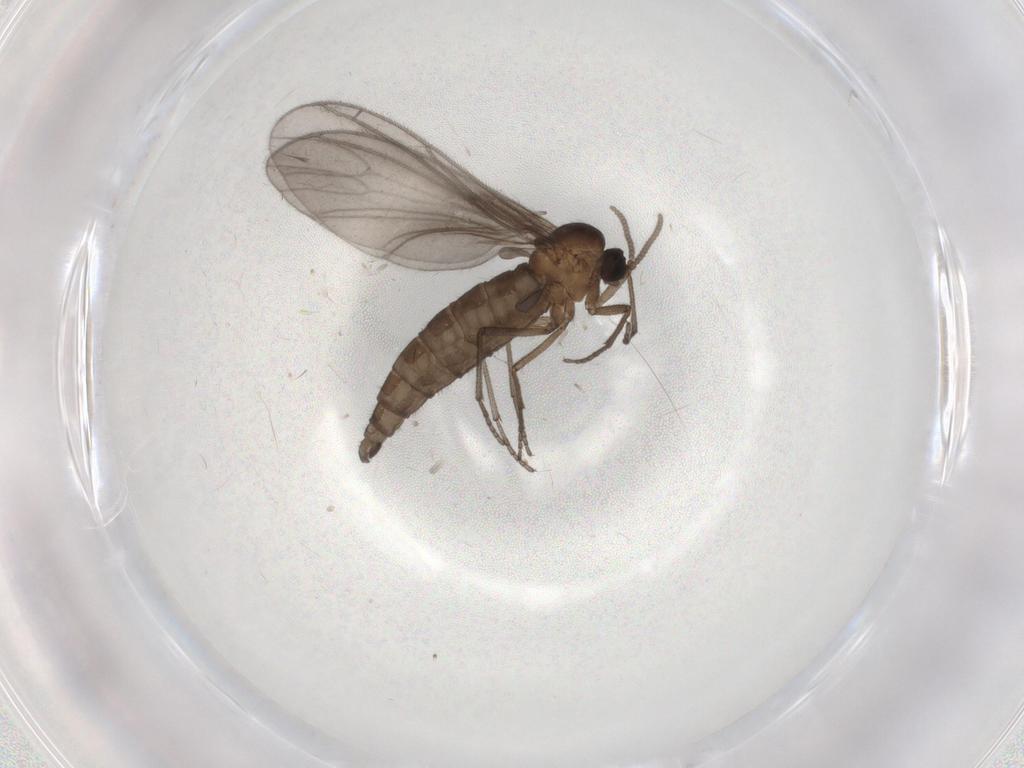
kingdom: Animalia
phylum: Arthropoda
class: Insecta
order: Diptera
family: Sciaridae
